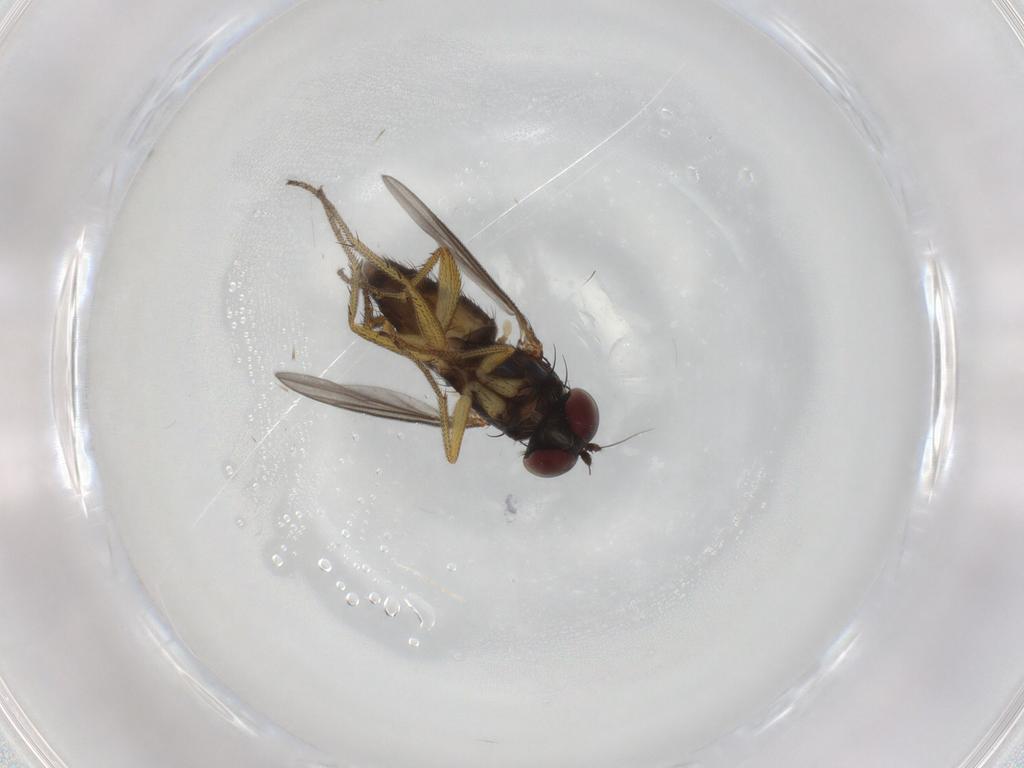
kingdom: Animalia
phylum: Arthropoda
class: Insecta
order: Diptera
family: Dolichopodidae
